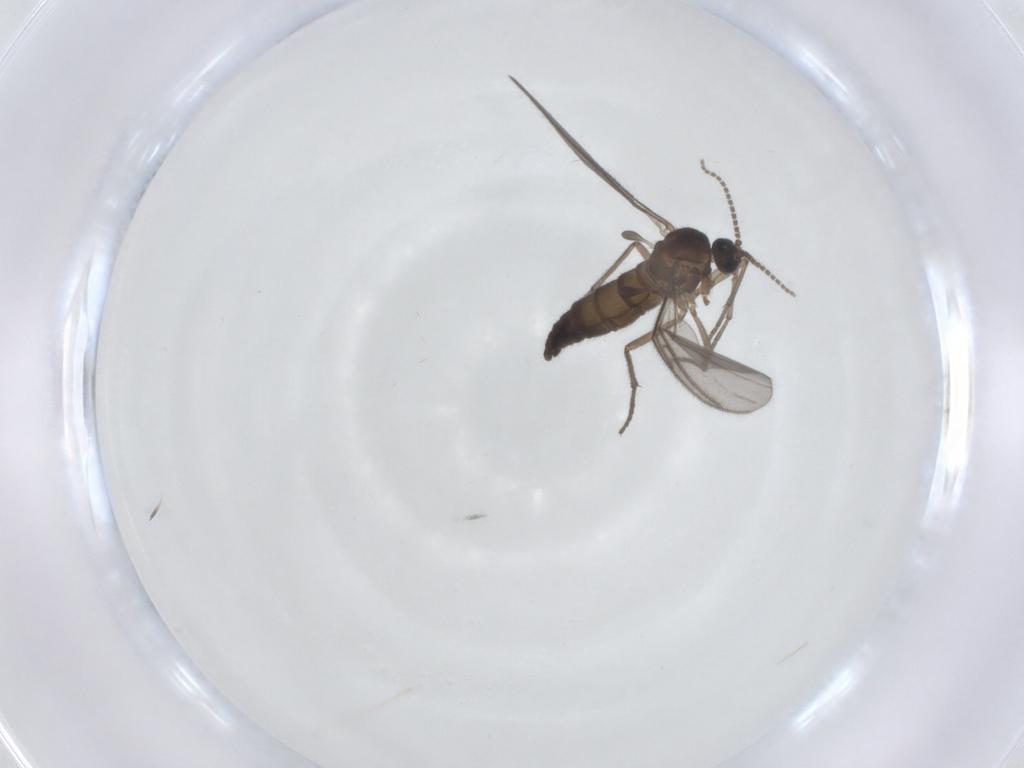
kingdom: Animalia
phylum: Arthropoda
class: Insecta
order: Diptera
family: Sciaridae
